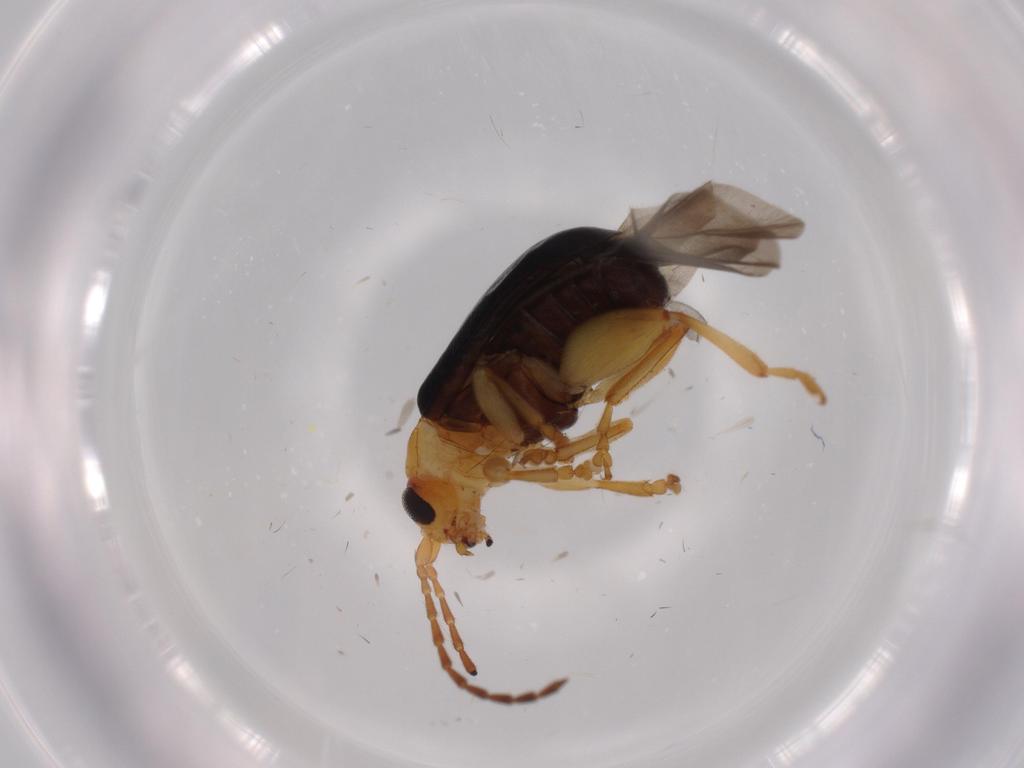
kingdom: Animalia
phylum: Arthropoda
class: Insecta
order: Coleoptera
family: Chrysomelidae
